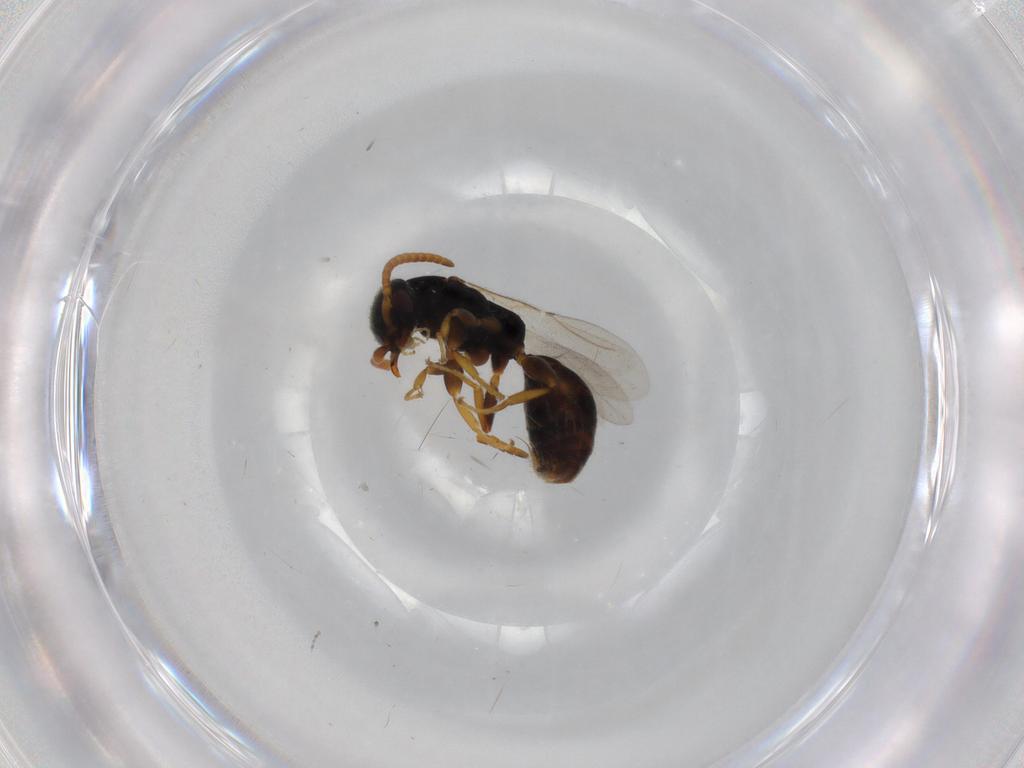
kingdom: Animalia
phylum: Arthropoda
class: Insecta
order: Hymenoptera
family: Bethylidae
